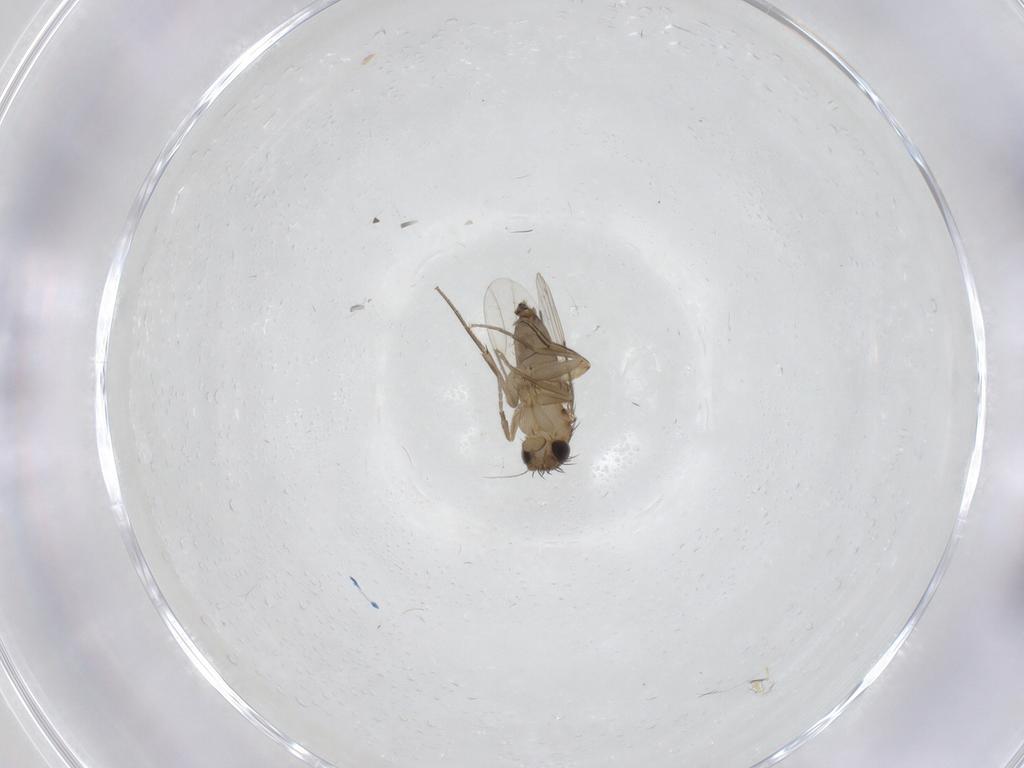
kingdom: Animalia
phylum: Arthropoda
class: Insecta
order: Diptera
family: Phoridae
